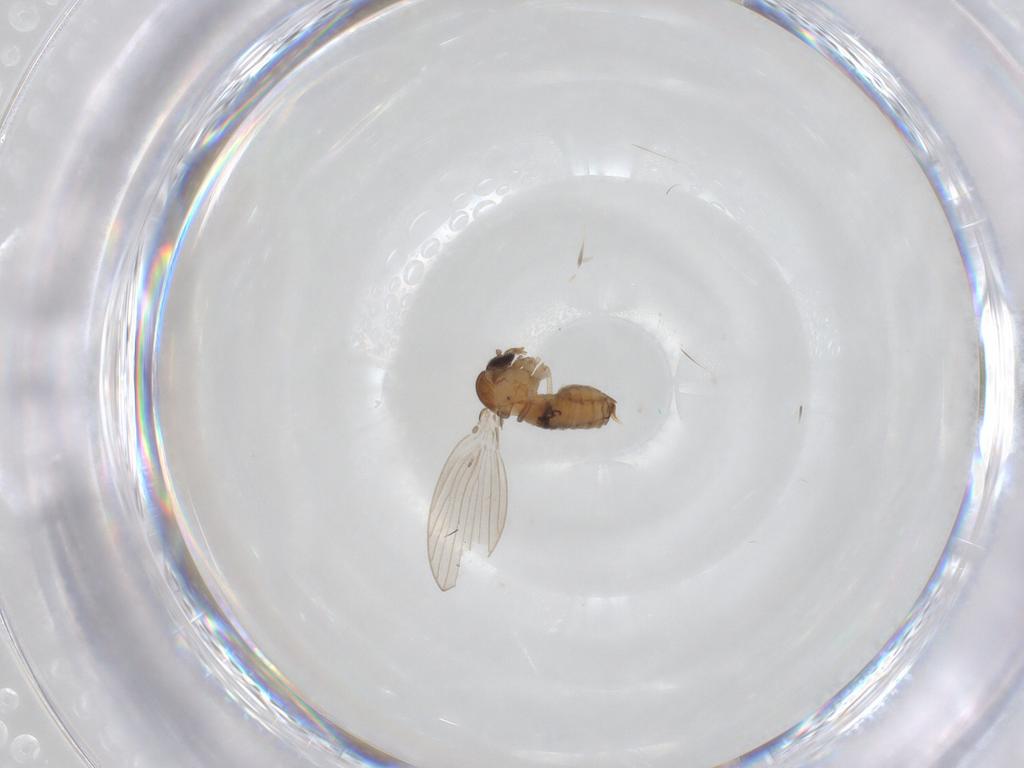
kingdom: Animalia
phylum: Arthropoda
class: Insecta
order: Diptera
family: Psychodidae
